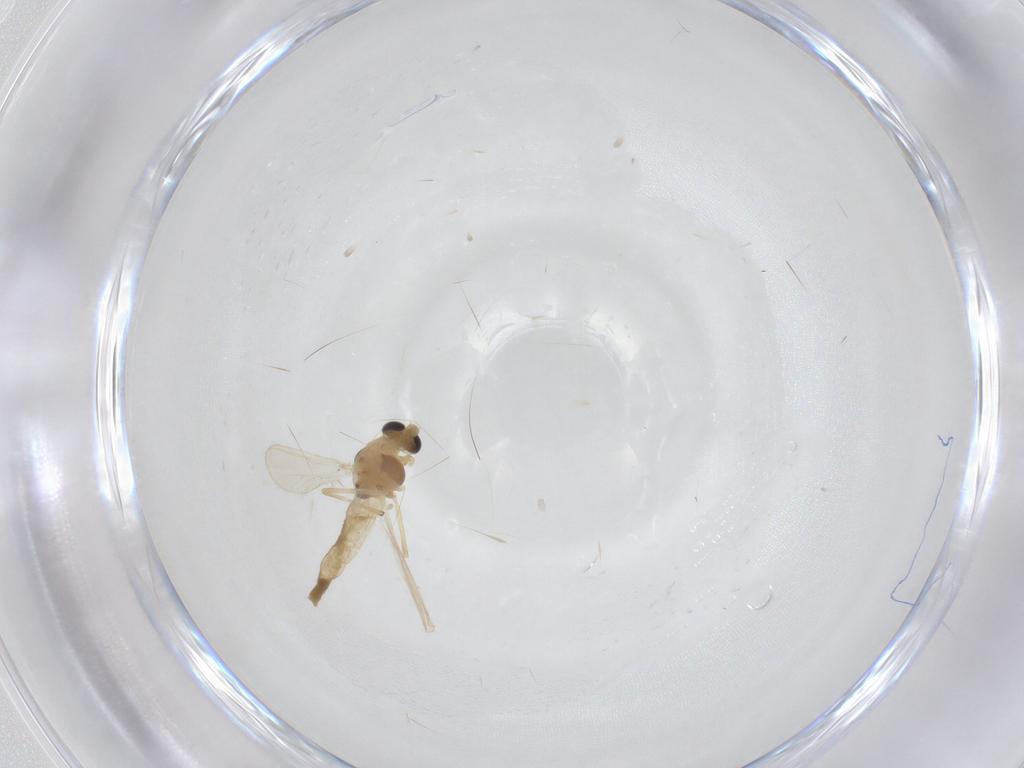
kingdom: Animalia
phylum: Arthropoda
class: Insecta
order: Diptera
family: Chironomidae
